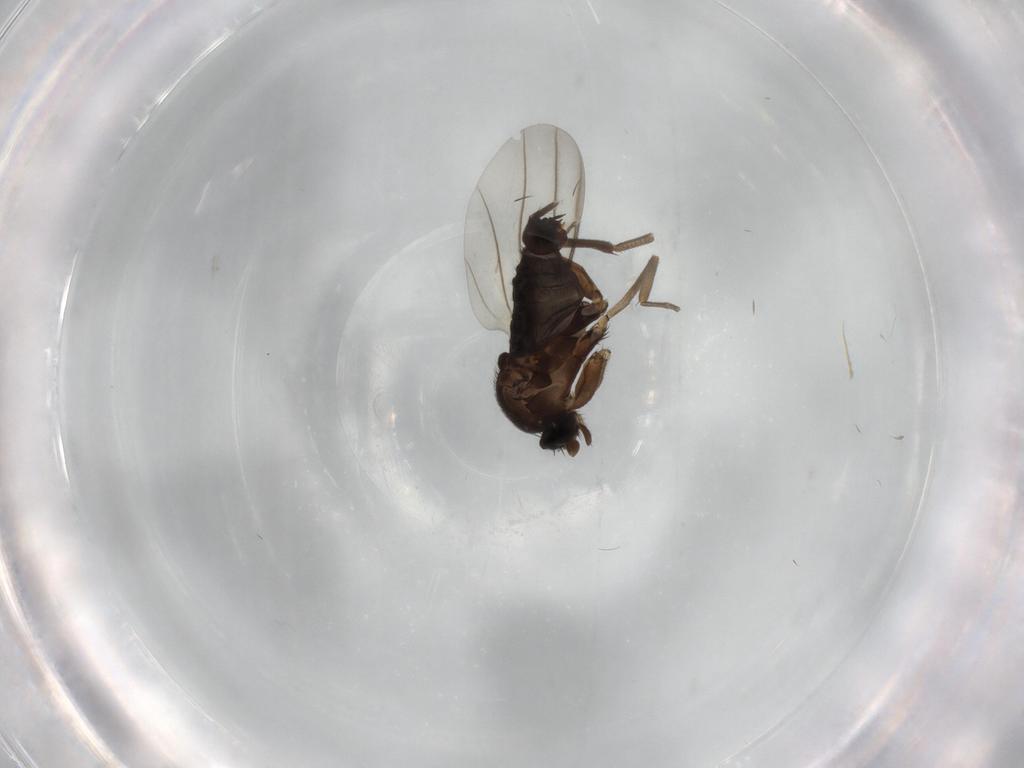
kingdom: Animalia
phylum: Arthropoda
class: Insecta
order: Diptera
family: Cecidomyiidae
